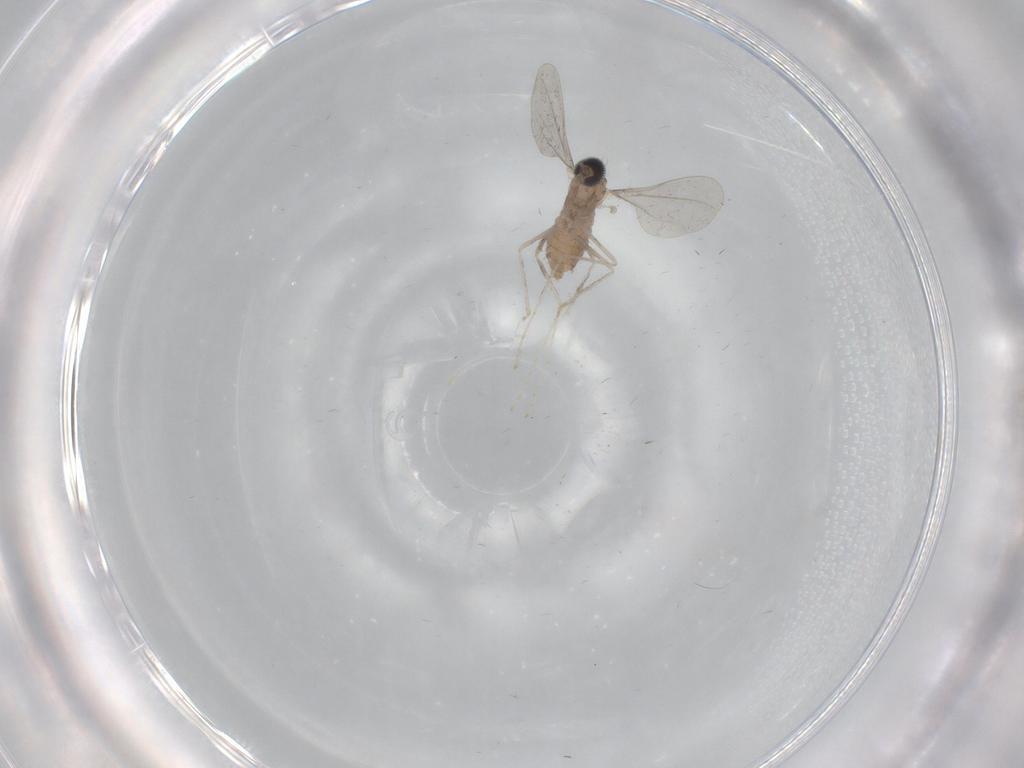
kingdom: Animalia
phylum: Arthropoda
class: Insecta
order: Diptera
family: Cecidomyiidae
